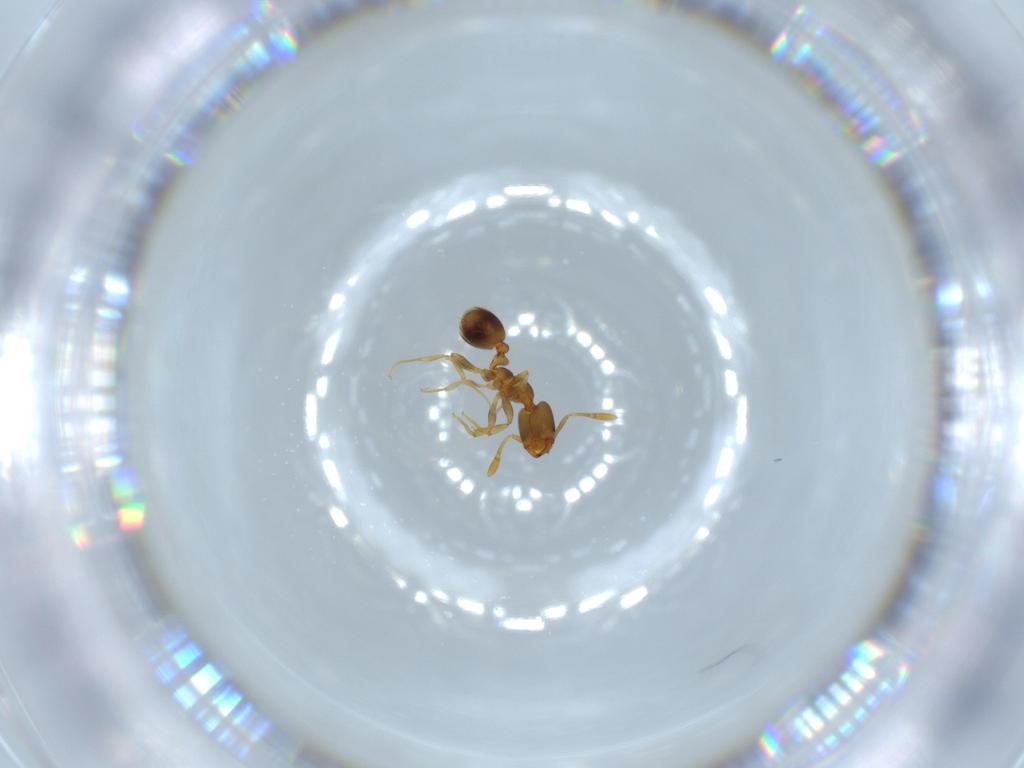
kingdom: Animalia
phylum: Arthropoda
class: Insecta
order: Hymenoptera
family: Formicidae
